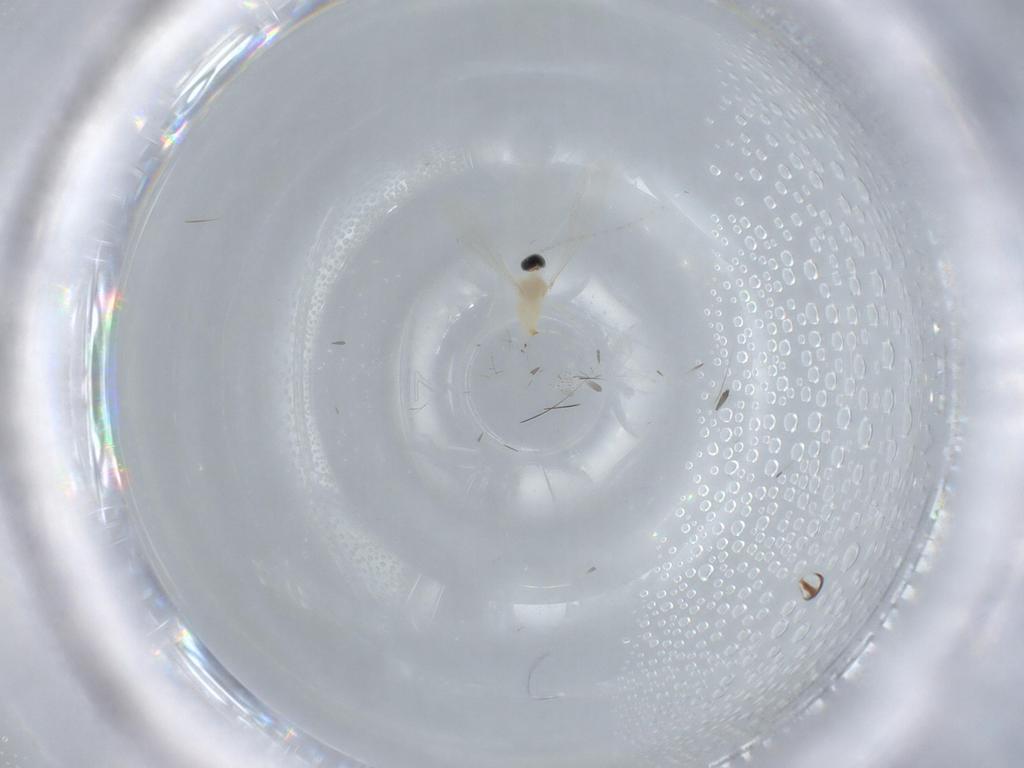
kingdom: Animalia
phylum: Arthropoda
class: Insecta
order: Diptera
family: Cecidomyiidae
